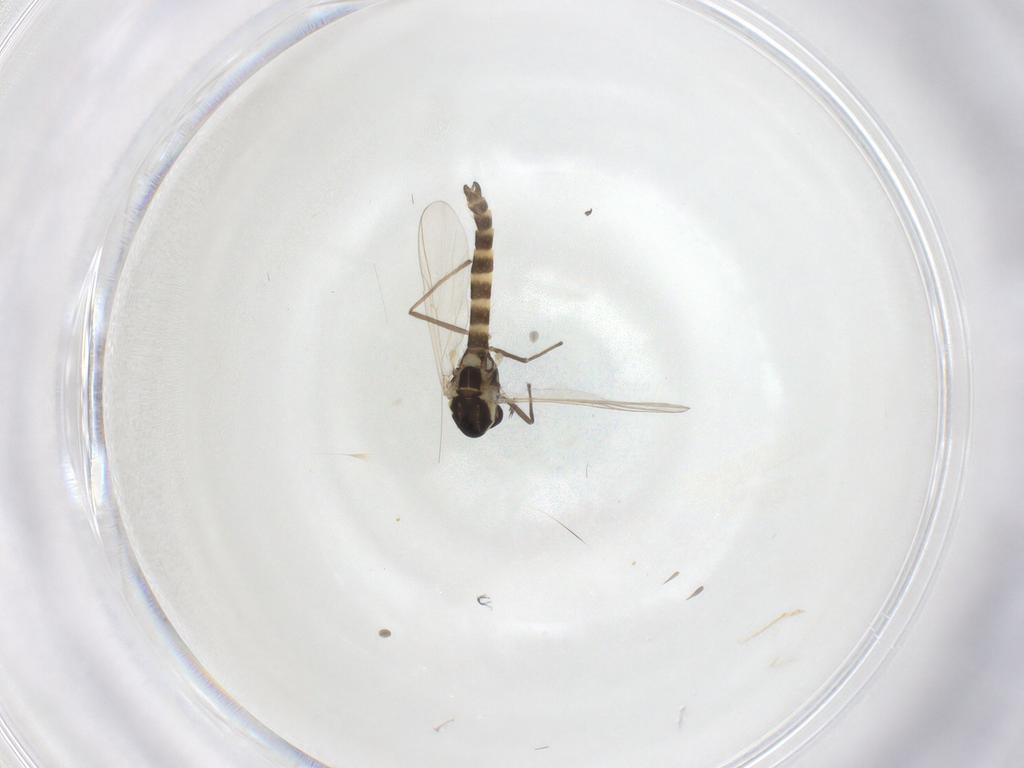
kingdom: Animalia
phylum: Arthropoda
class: Insecta
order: Diptera
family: Chironomidae
